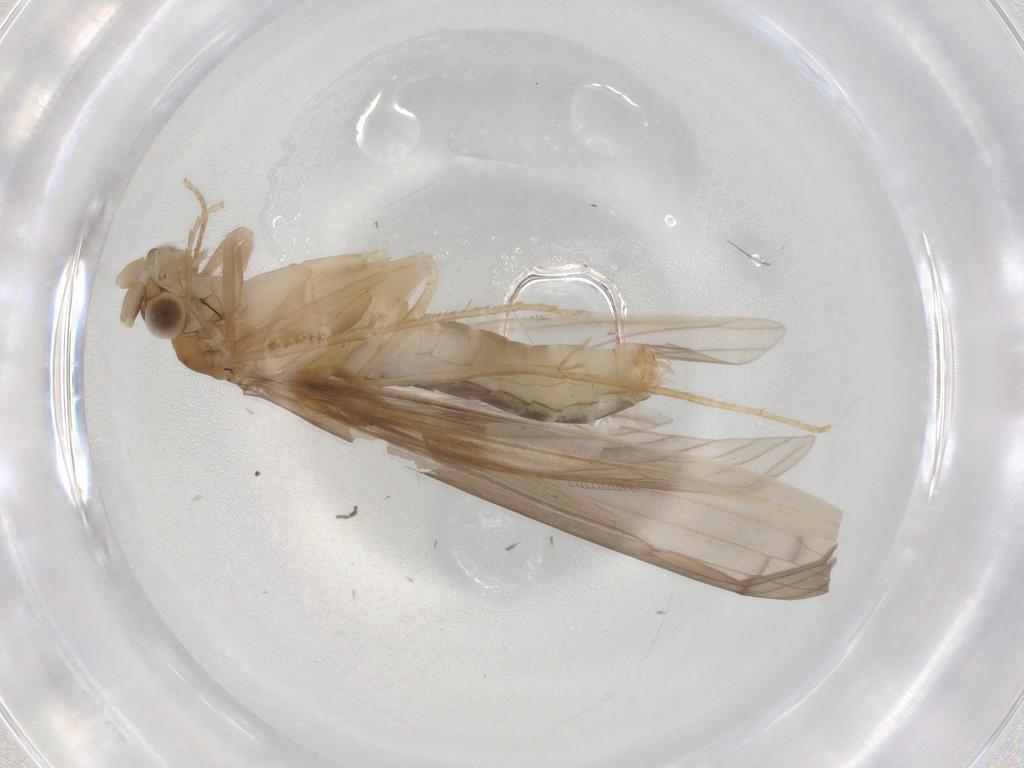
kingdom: Animalia
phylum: Arthropoda
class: Insecta
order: Trichoptera
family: Leptoceridae
